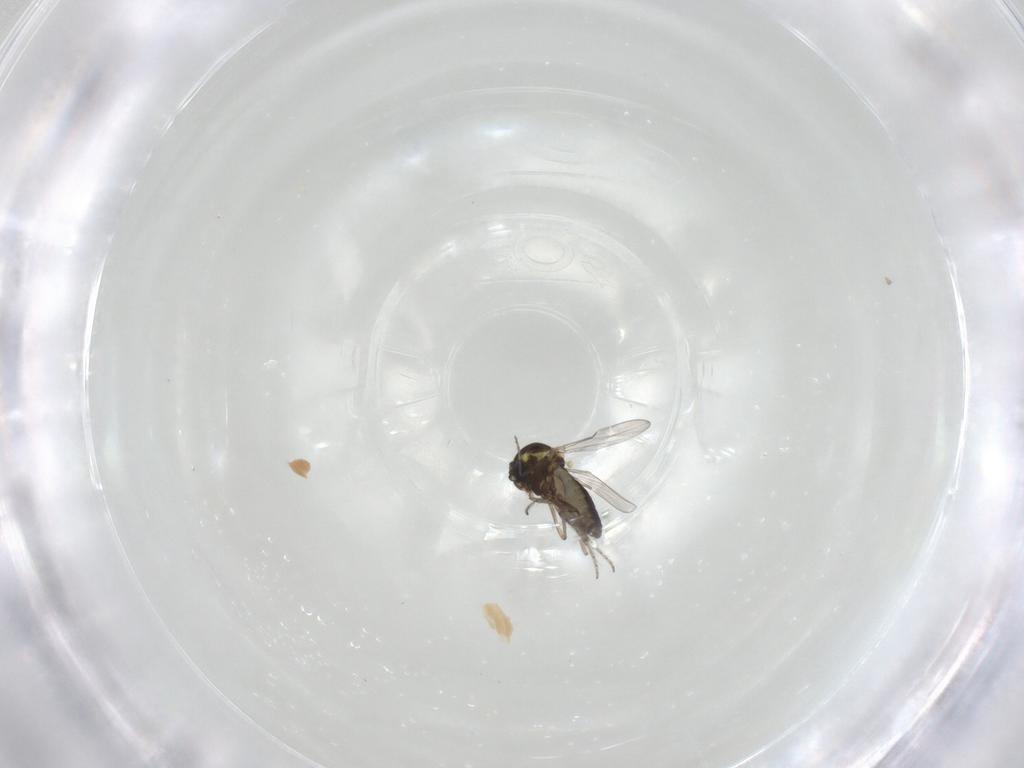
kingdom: Animalia
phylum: Arthropoda
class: Insecta
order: Diptera
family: Ceratopogonidae
